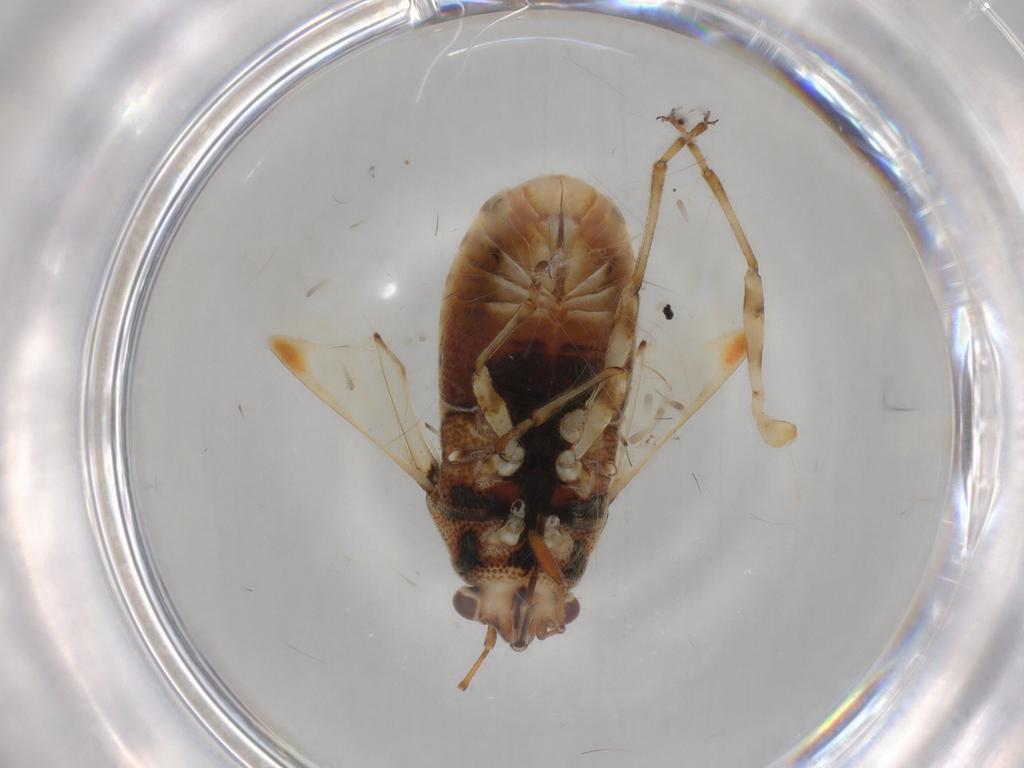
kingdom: Animalia
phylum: Arthropoda
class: Insecta
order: Hemiptera
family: Lygaeidae
